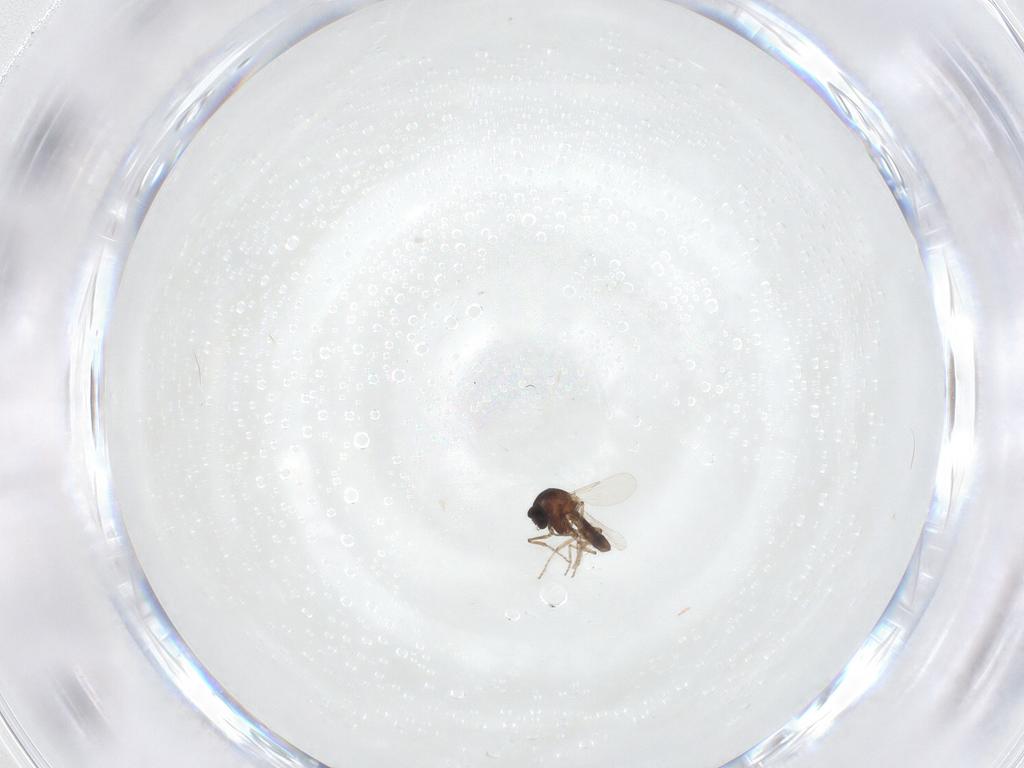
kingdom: Animalia
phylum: Arthropoda
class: Insecta
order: Diptera
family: Ceratopogonidae
